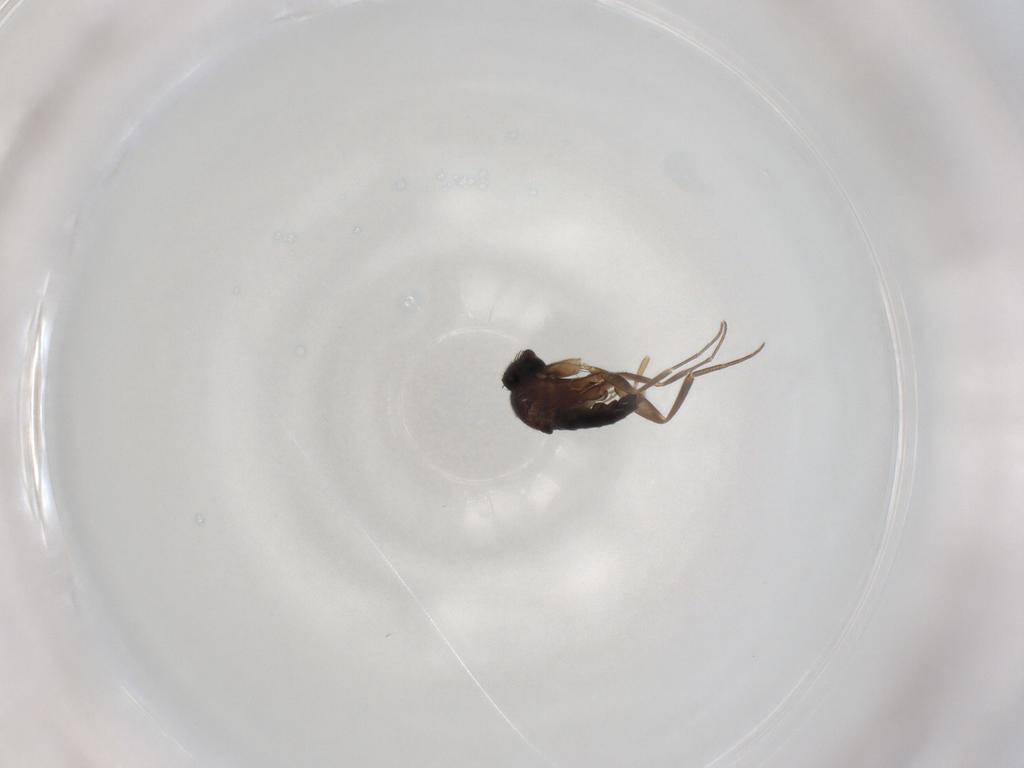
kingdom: Animalia
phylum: Arthropoda
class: Insecta
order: Diptera
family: Phoridae
